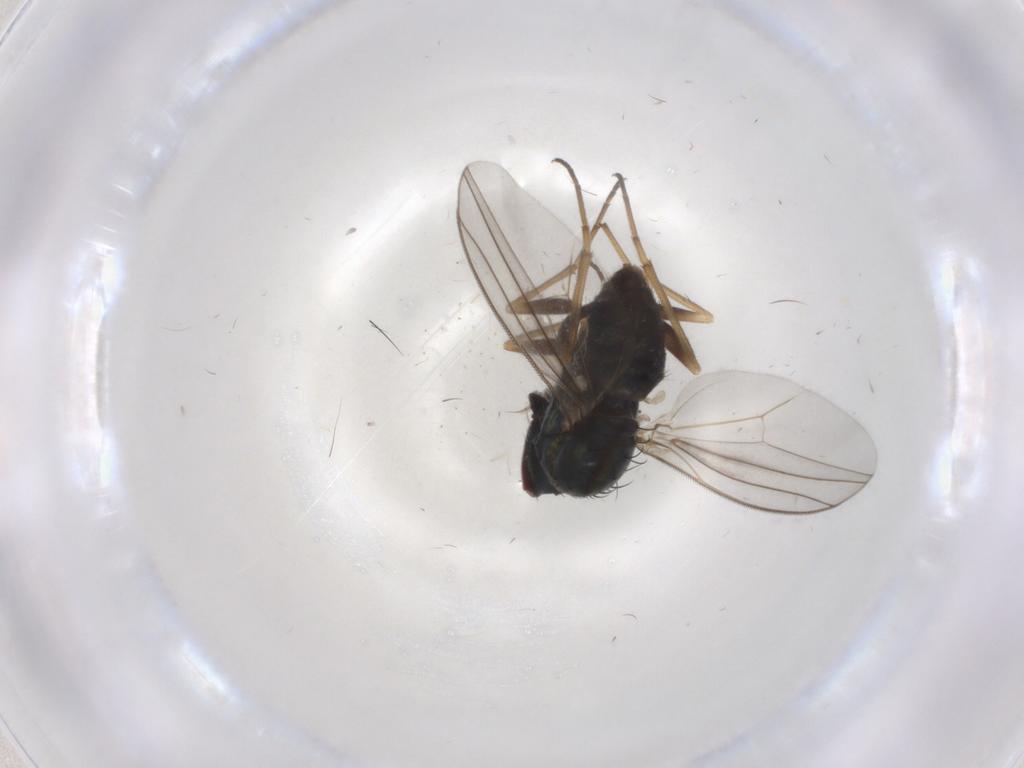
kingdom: Animalia
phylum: Arthropoda
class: Insecta
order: Diptera
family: Dolichopodidae
